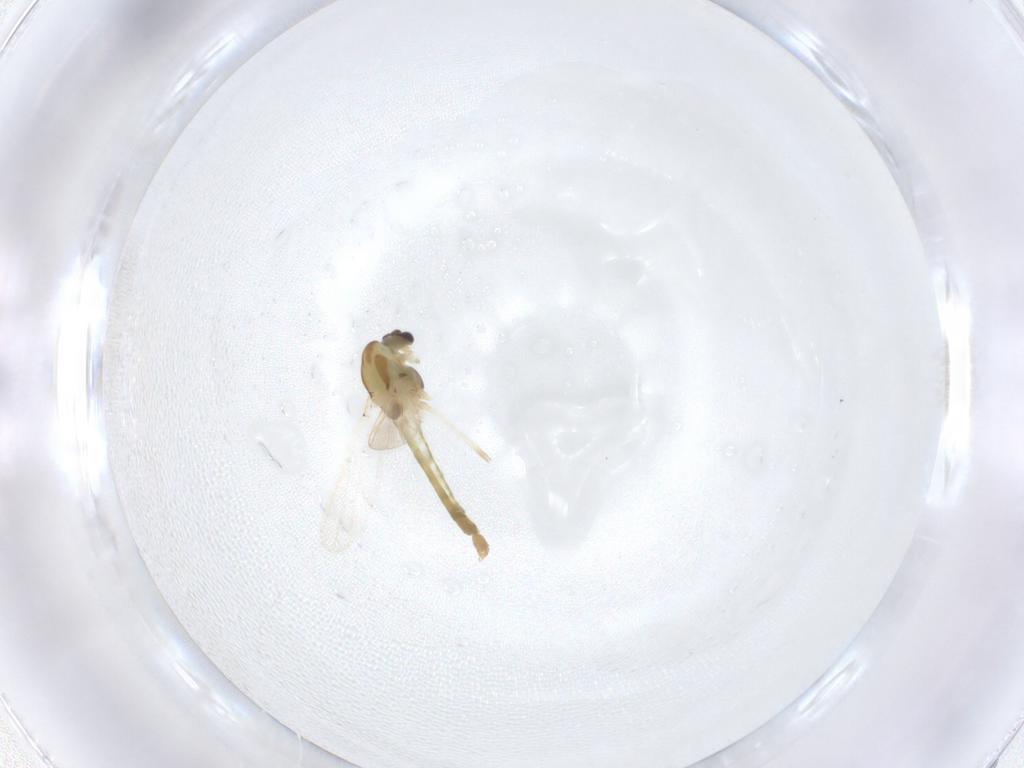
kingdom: Animalia
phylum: Arthropoda
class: Insecta
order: Diptera
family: Chironomidae
